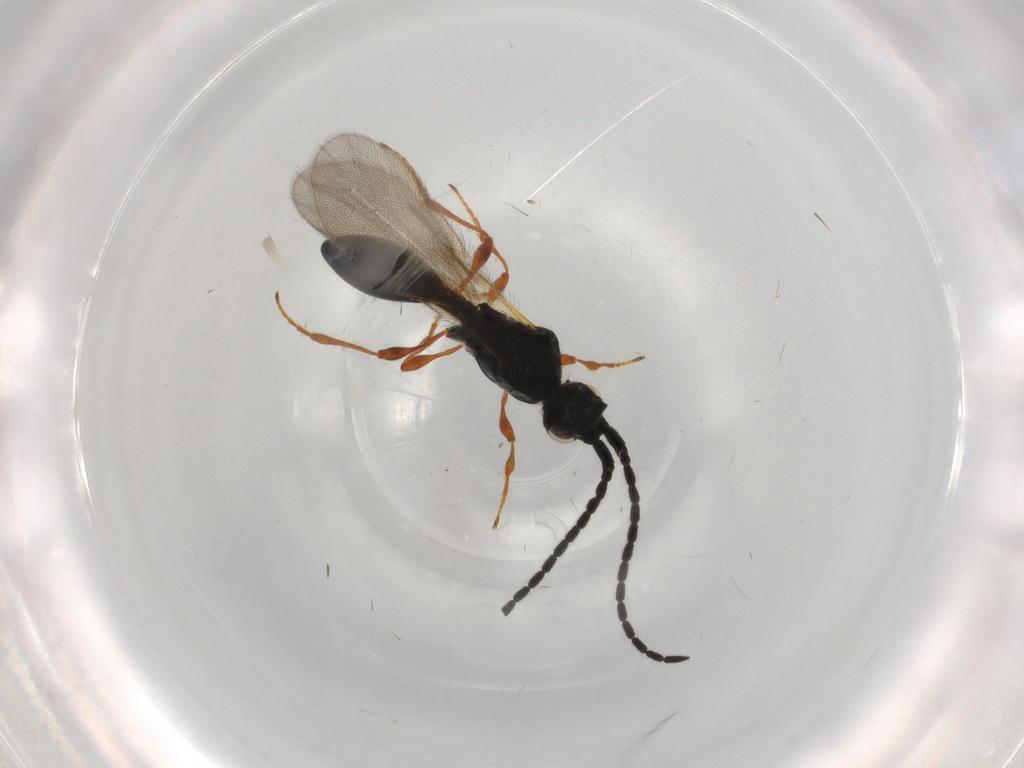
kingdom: Animalia
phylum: Arthropoda
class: Insecta
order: Hymenoptera
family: Diapriidae
